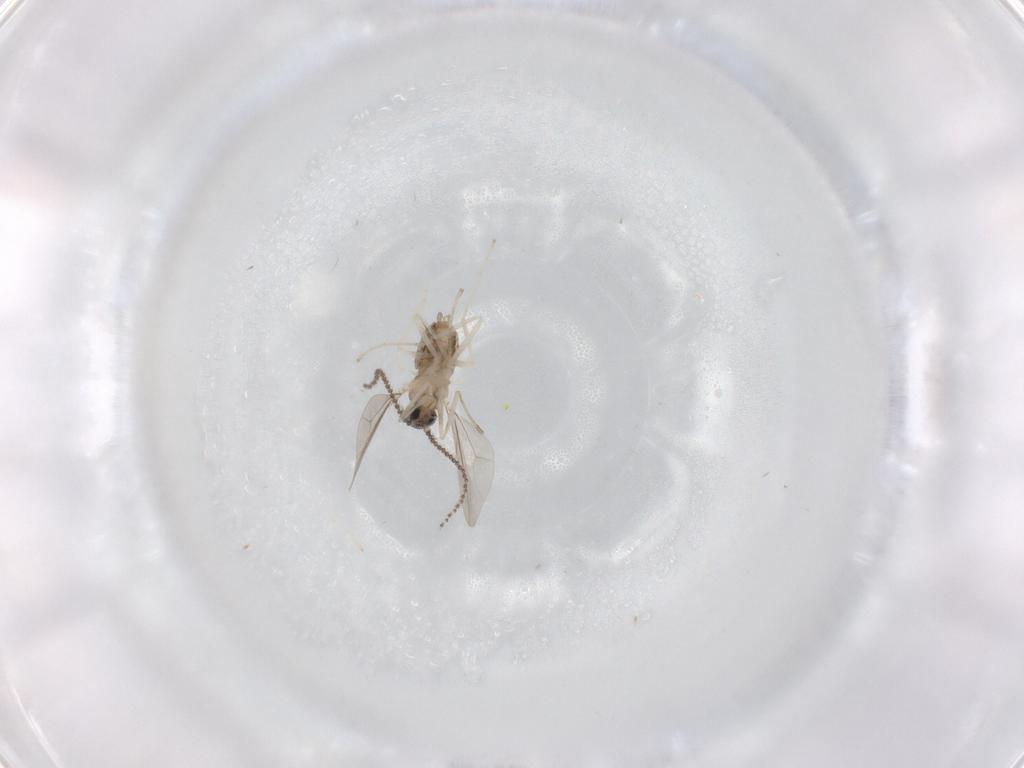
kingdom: Animalia
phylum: Arthropoda
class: Insecta
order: Diptera
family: Cecidomyiidae
